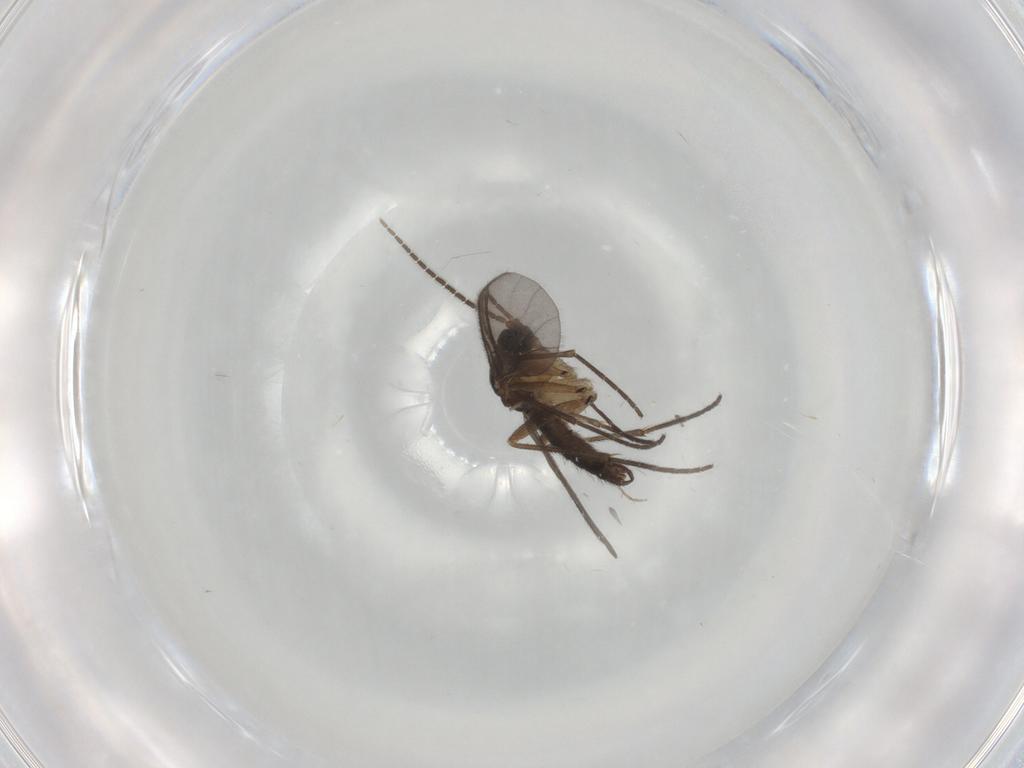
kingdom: Animalia
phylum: Arthropoda
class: Insecta
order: Diptera
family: Sciaridae
